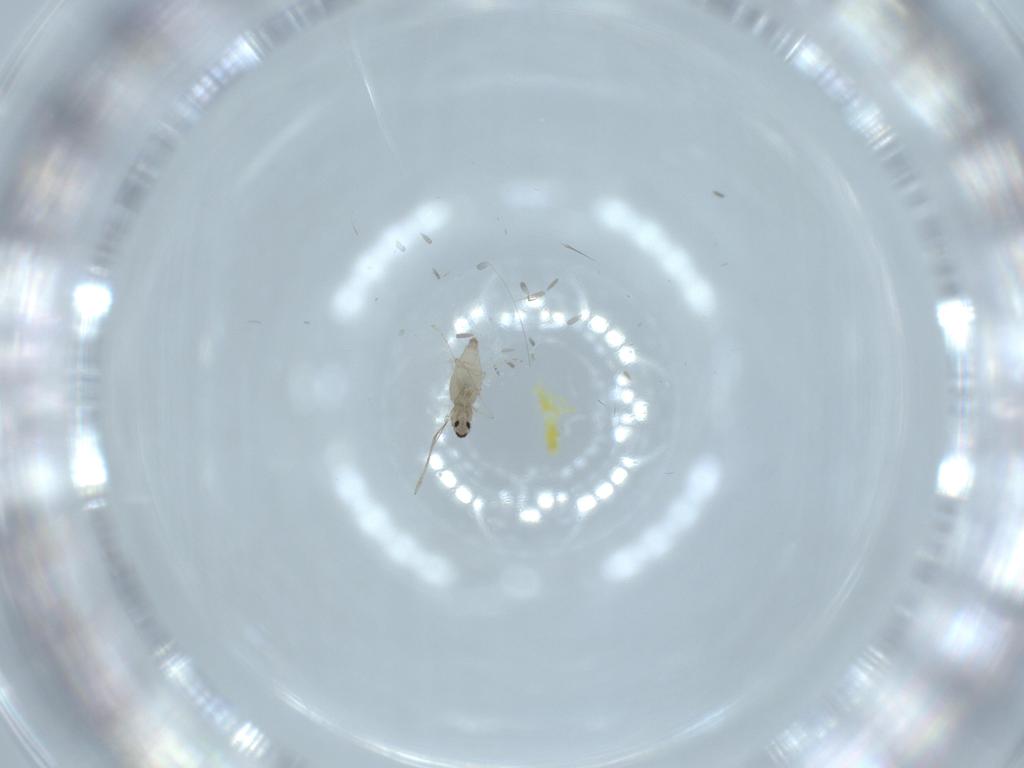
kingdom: Animalia
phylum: Arthropoda
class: Insecta
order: Diptera
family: Cecidomyiidae
